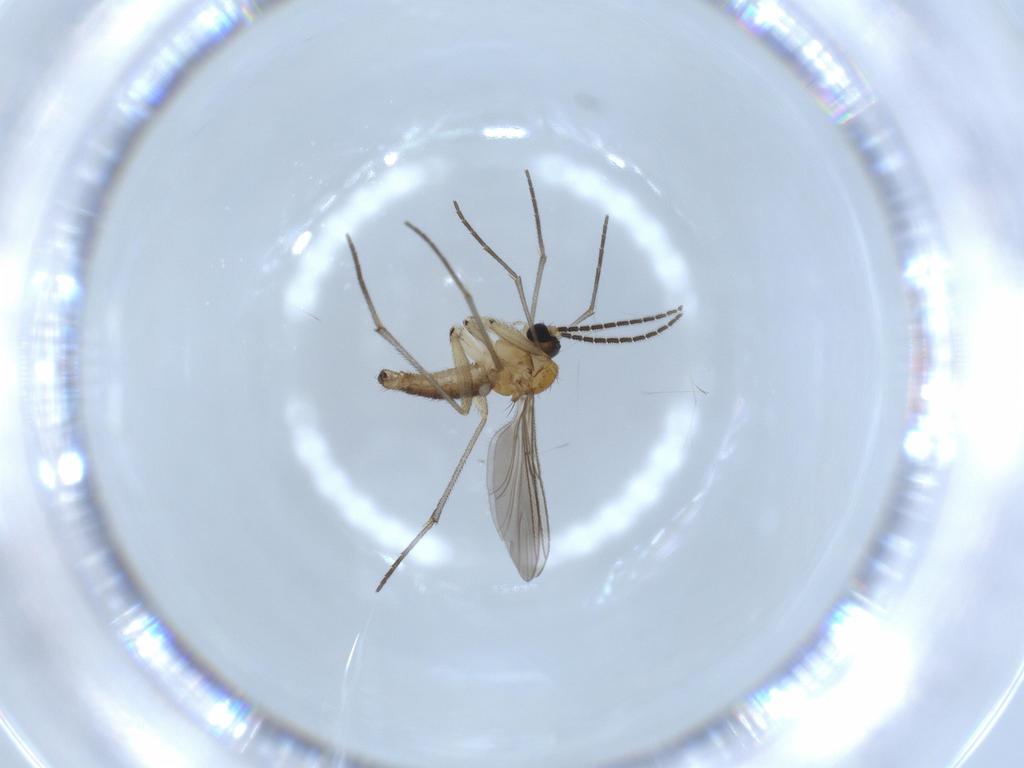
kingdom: Animalia
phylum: Arthropoda
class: Insecta
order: Diptera
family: Sciaridae
